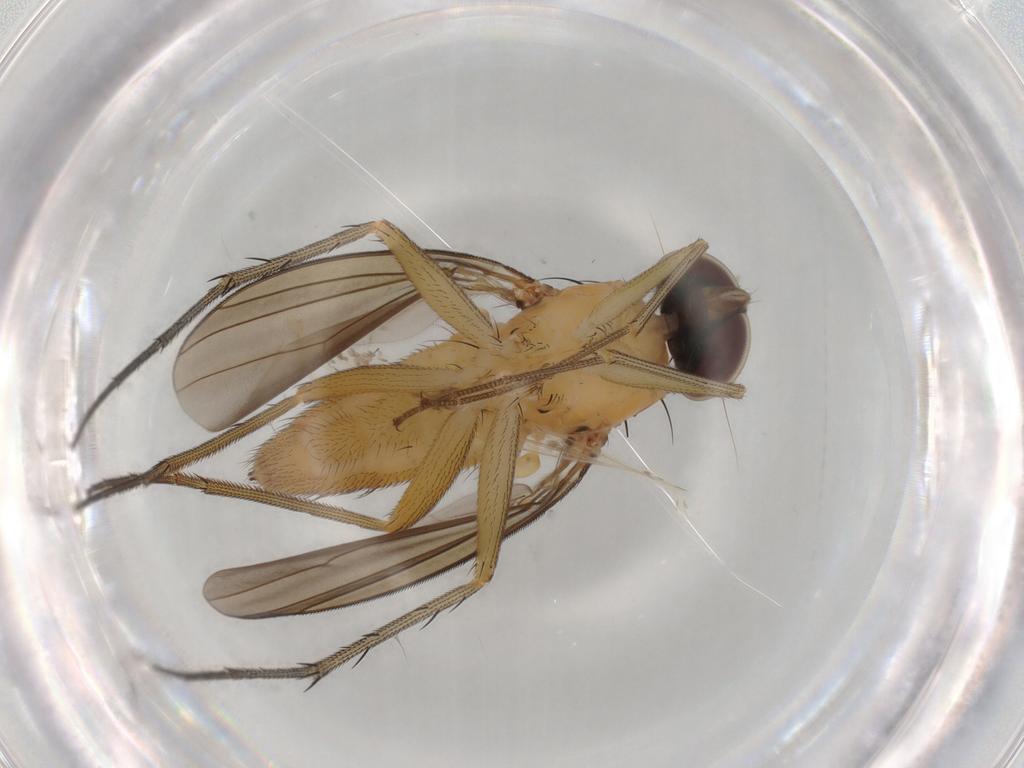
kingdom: Animalia
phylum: Arthropoda
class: Insecta
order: Diptera
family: Dolichopodidae
